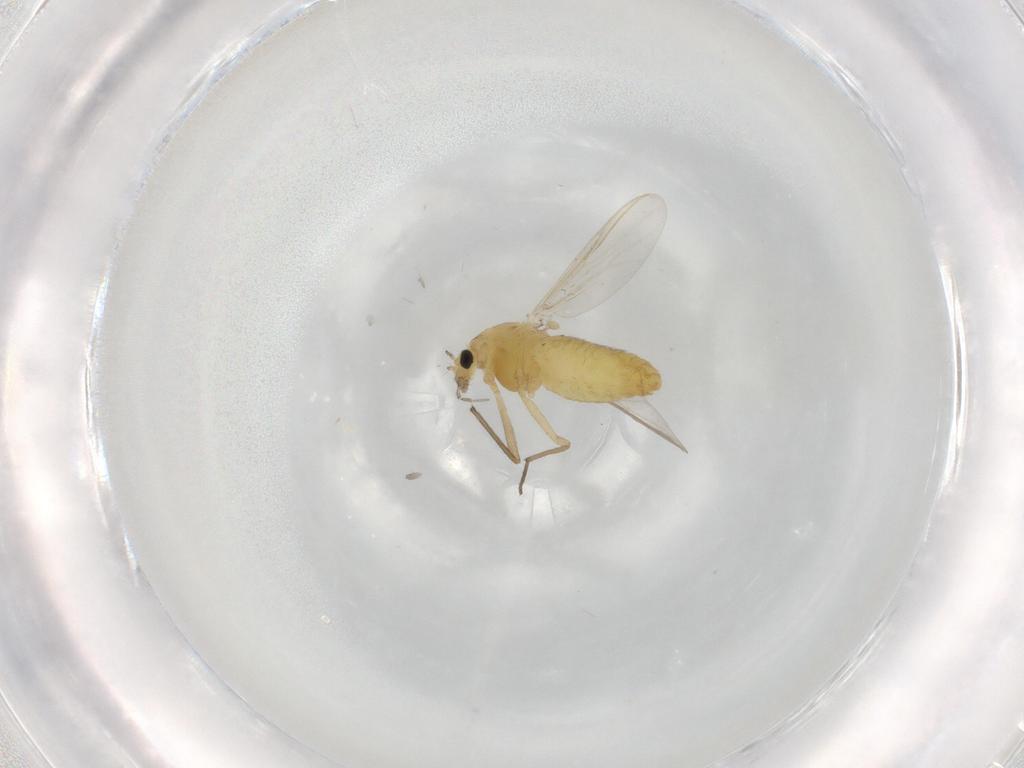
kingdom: Animalia
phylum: Arthropoda
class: Insecta
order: Diptera
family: Chironomidae
